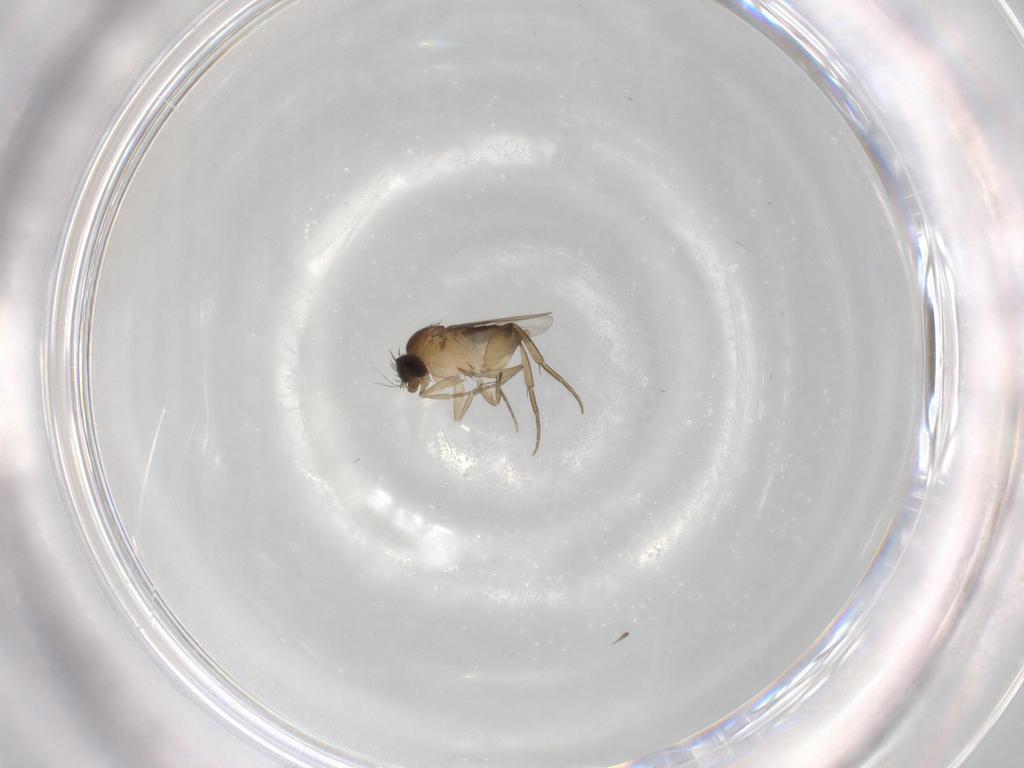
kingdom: Animalia
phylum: Arthropoda
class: Insecta
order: Diptera
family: Phoridae
